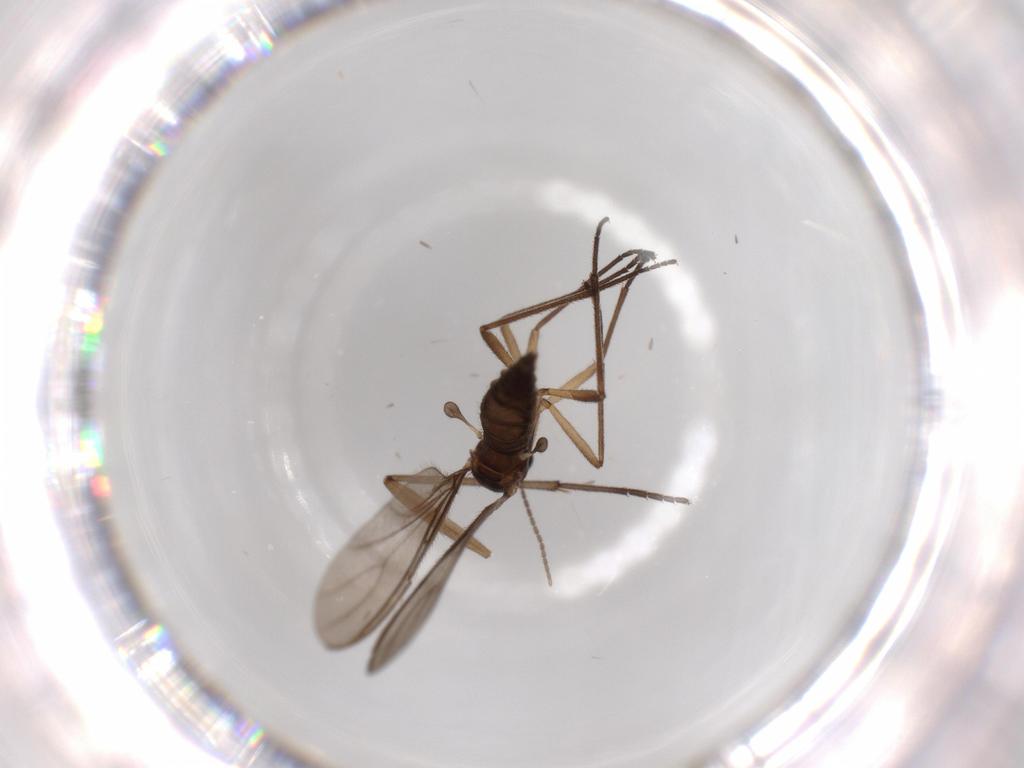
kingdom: Animalia
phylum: Arthropoda
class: Insecta
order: Diptera
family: Sciaridae
